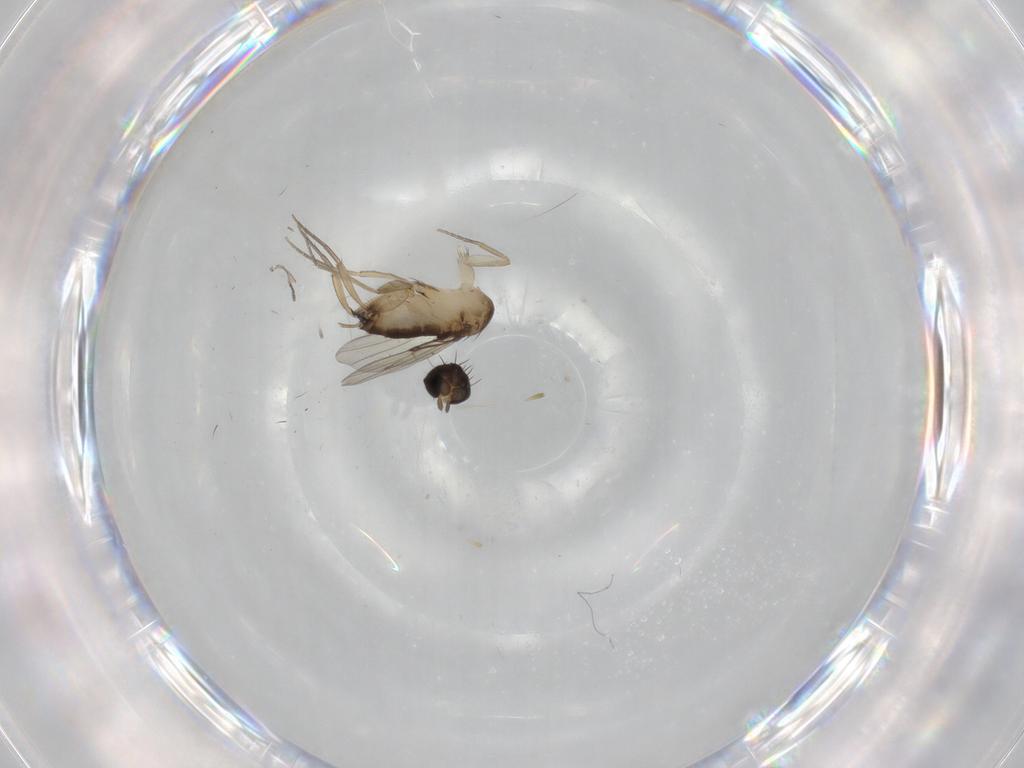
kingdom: Animalia
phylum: Arthropoda
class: Insecta
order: Diptera
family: Phoridae
